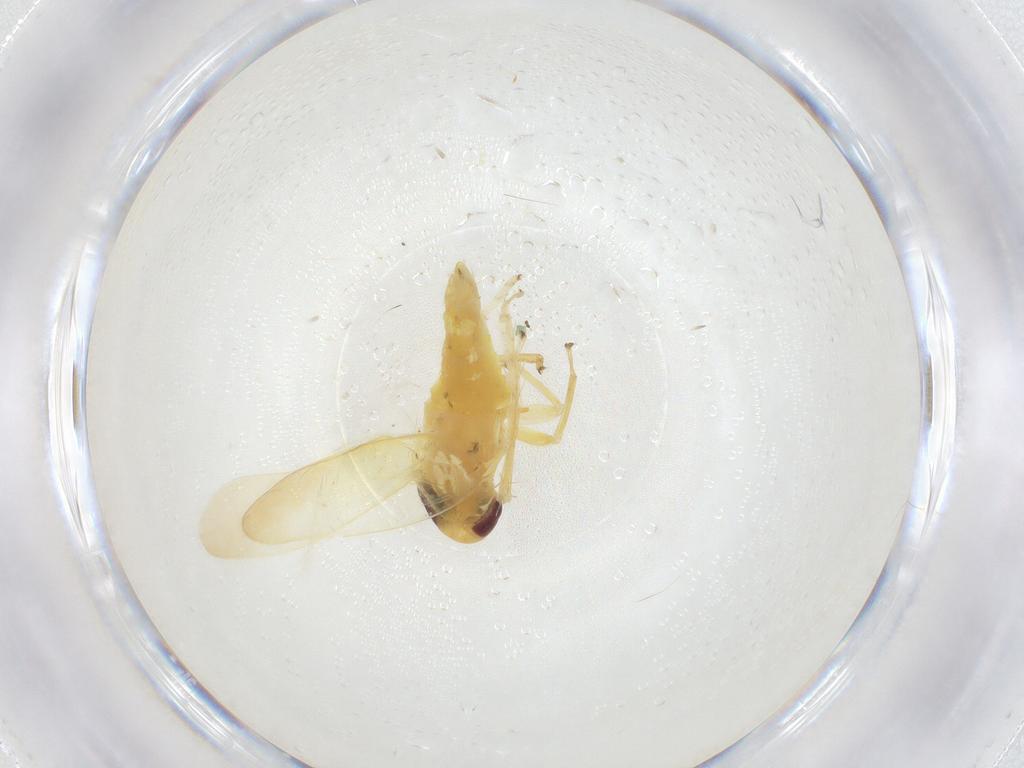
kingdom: Animalia
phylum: Arthropoda
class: Insecta
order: Hemiptera
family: Cicadellidae
